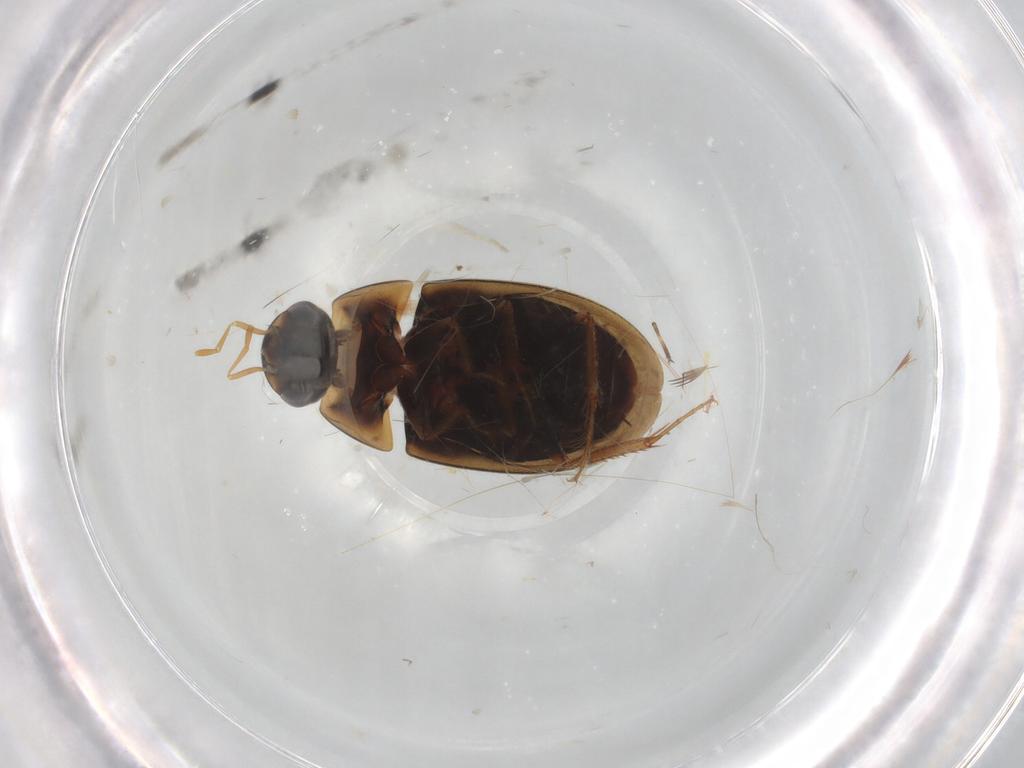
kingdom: Animalia
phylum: Arthropoda
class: Insecta
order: Coleoptera
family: Hydrophilidae
